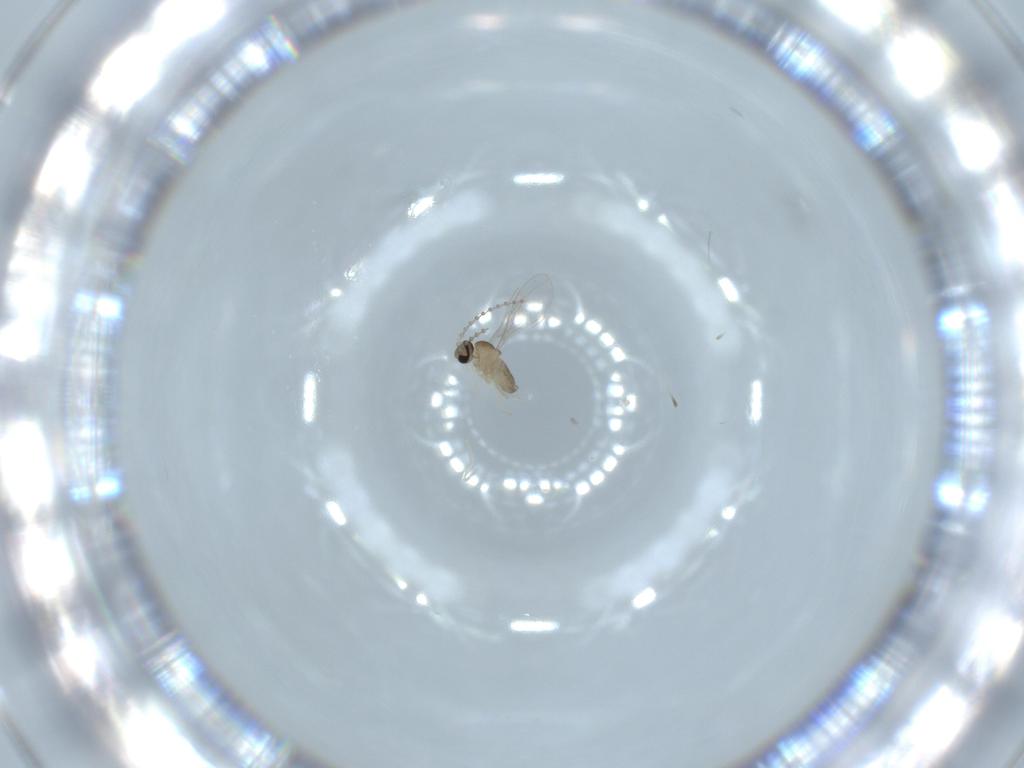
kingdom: Animalia
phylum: Arthropoda
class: Insecta
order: Diptera
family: Cecidomyiidae
